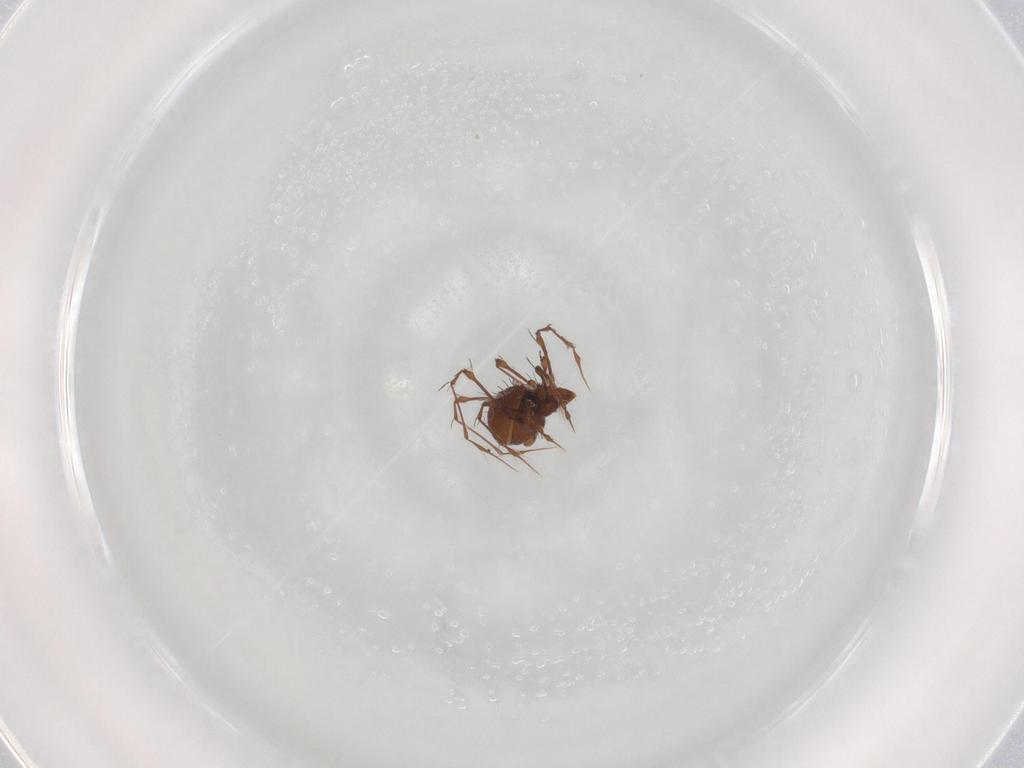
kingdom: Animalia
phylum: Arthropoda
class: Arachnida
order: Sarcoptiformes
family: Damaeidae
